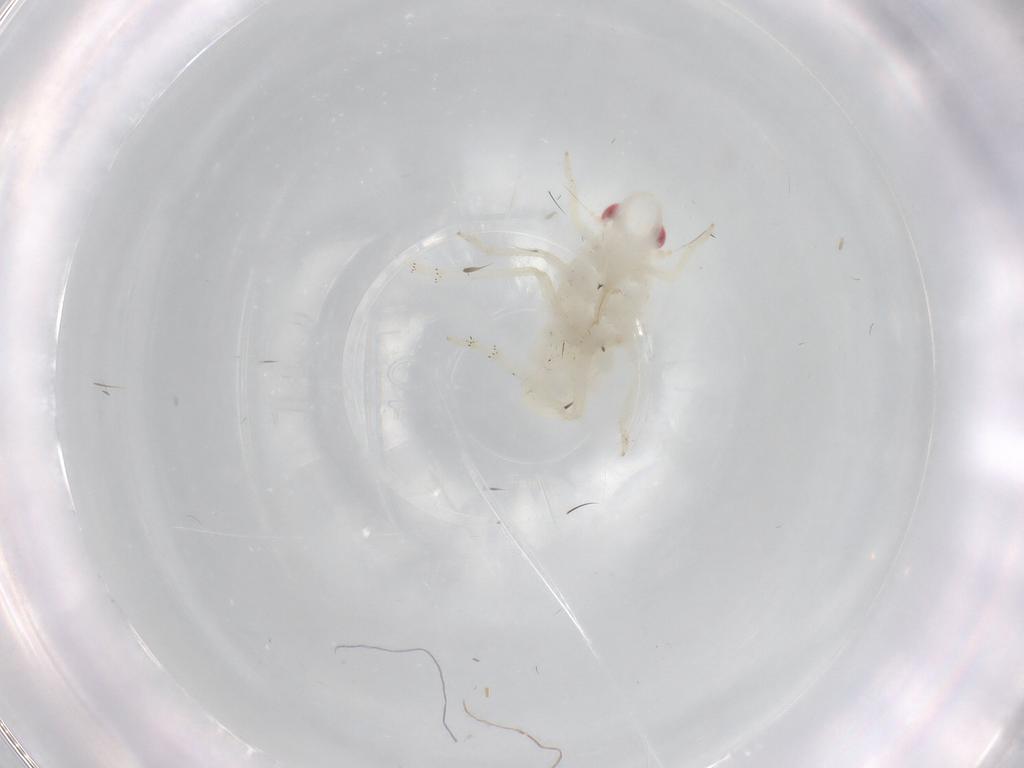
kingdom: Animalia
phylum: Arthropoda
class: Insecta
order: Hemiptera
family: Tropiduchidae
